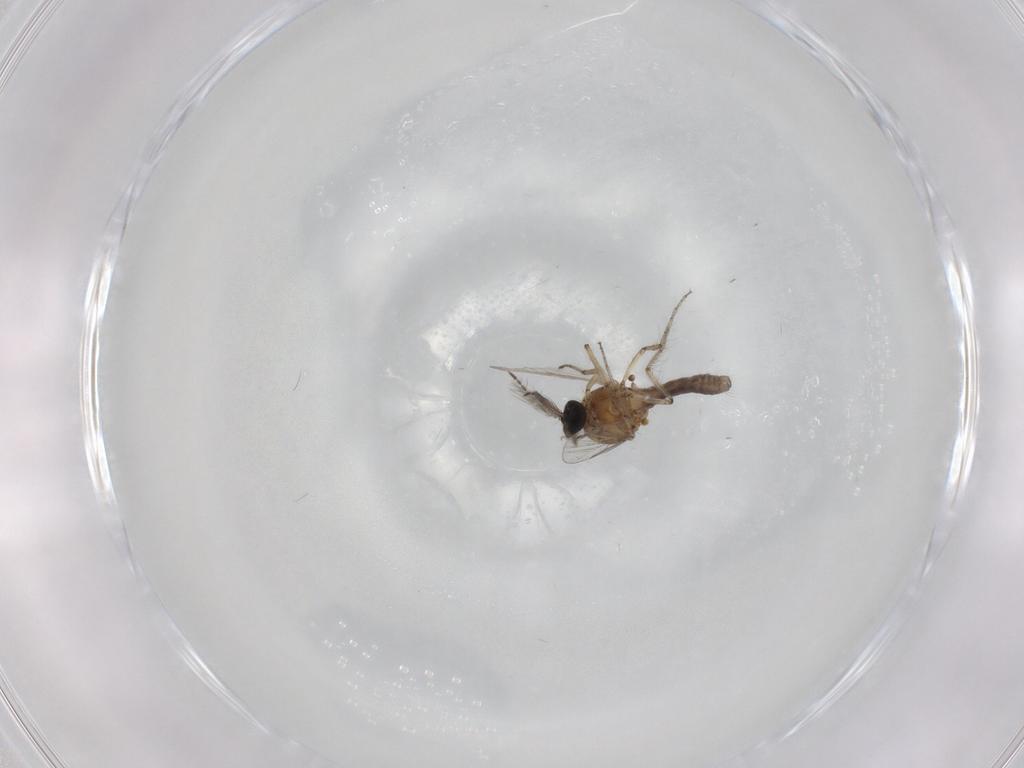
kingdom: Animalia
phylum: Arthropoda
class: Insecta
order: Diptera
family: Ceratopogonidae
